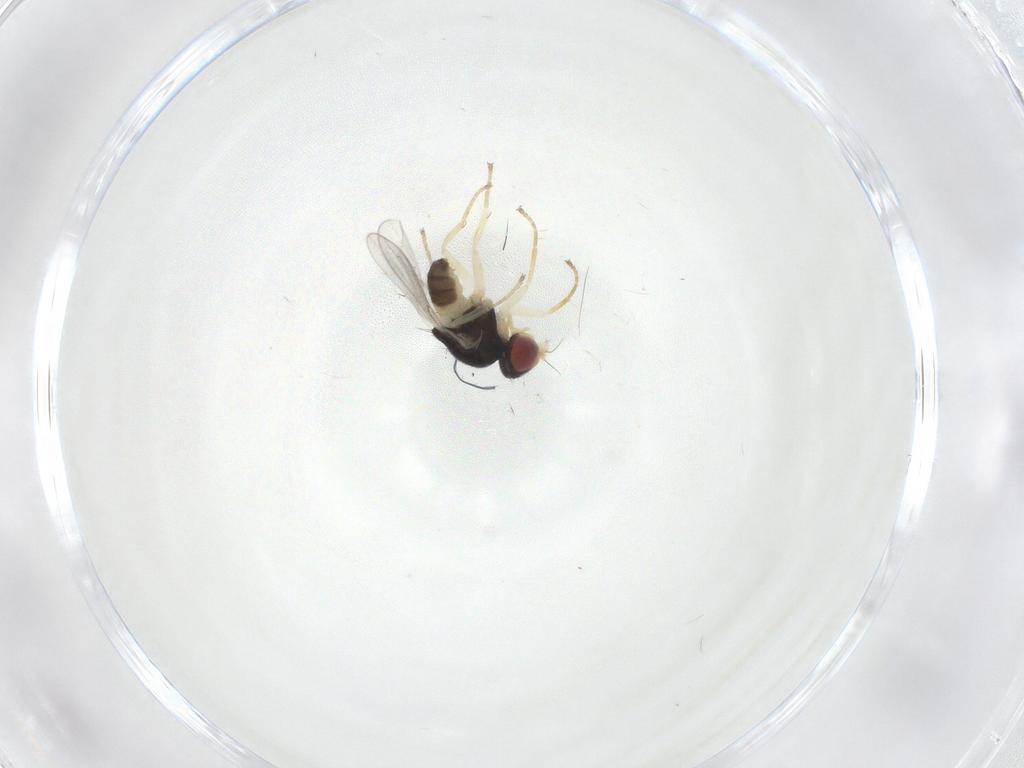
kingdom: Animalia
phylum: Arthropoda
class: Insecta
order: Diptera
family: Chloropidae
